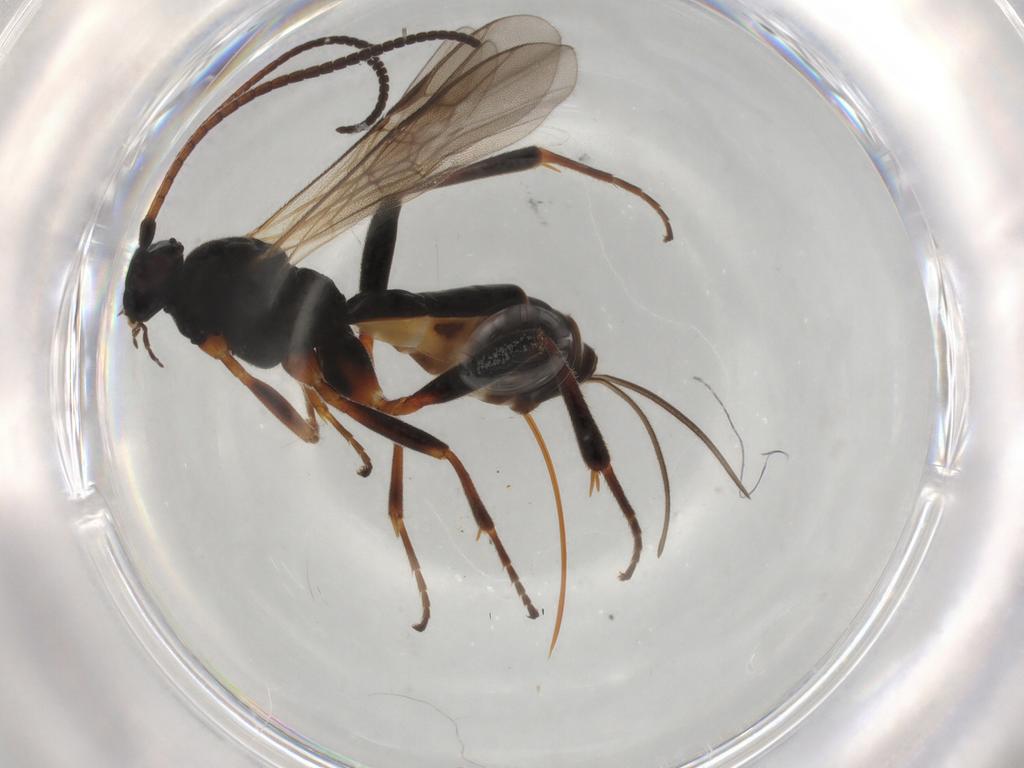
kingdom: Animalia
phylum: Arthropoda
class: Insecta
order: Hymenoptera
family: Braconidae
